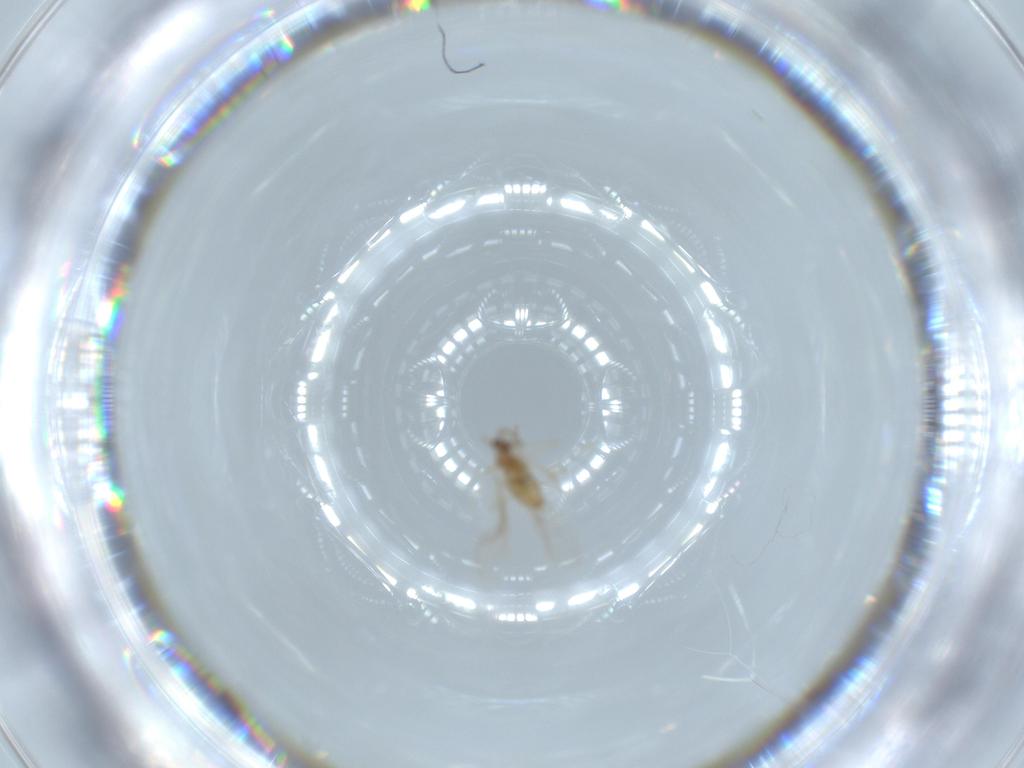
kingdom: Animalia
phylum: Arthropoda
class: Insecta
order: Diptera
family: Cecidomyiidae
